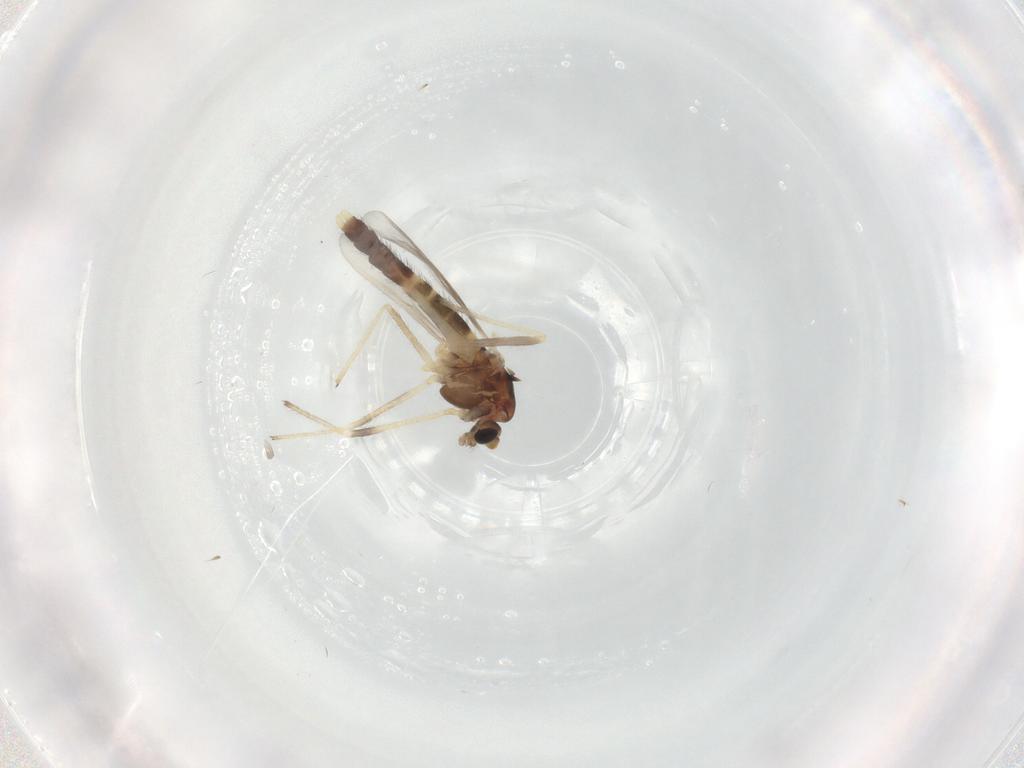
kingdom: Animalia
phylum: Arthropoda
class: Insecta
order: Diptera
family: Chironomidae
